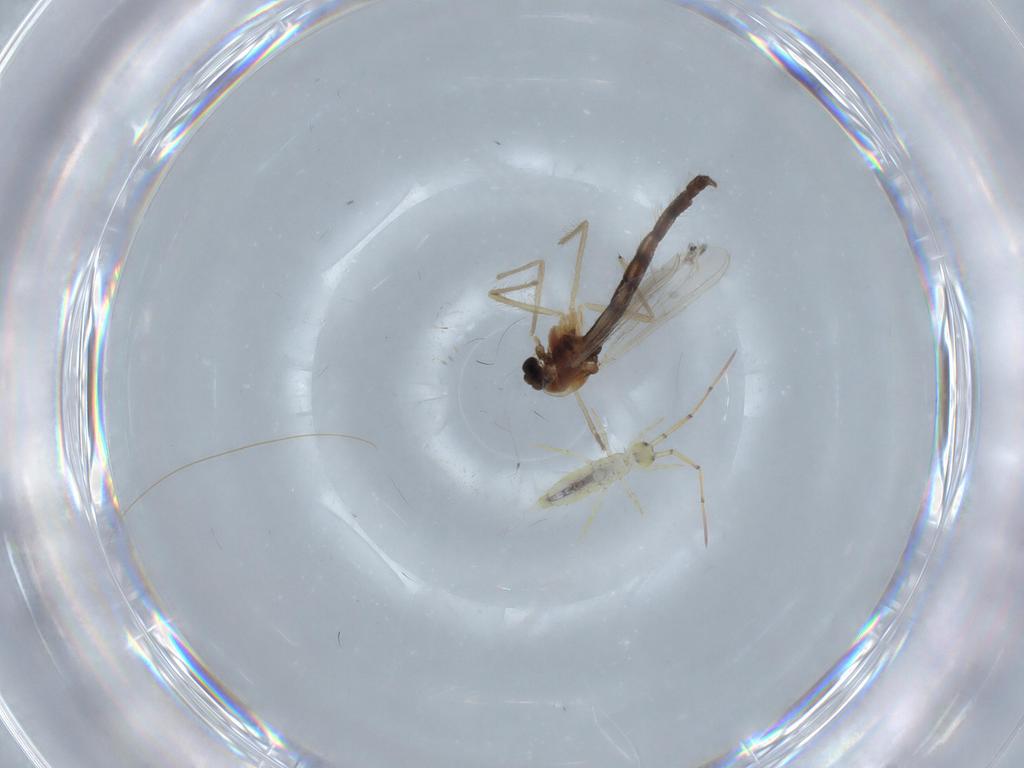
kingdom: Animalia
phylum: Arthropoda
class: Insecta
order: Diptera
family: Chironomidae
